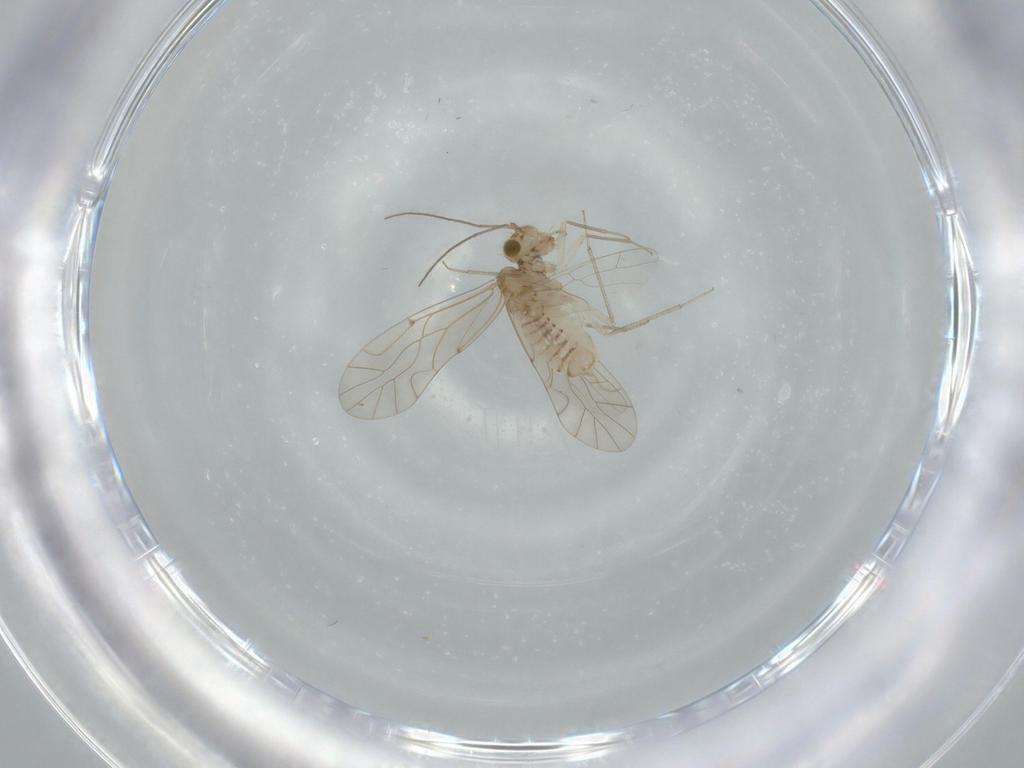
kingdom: Animalia
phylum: Arthropoda
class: Insecta
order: Psocodea
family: Lachesillidae
